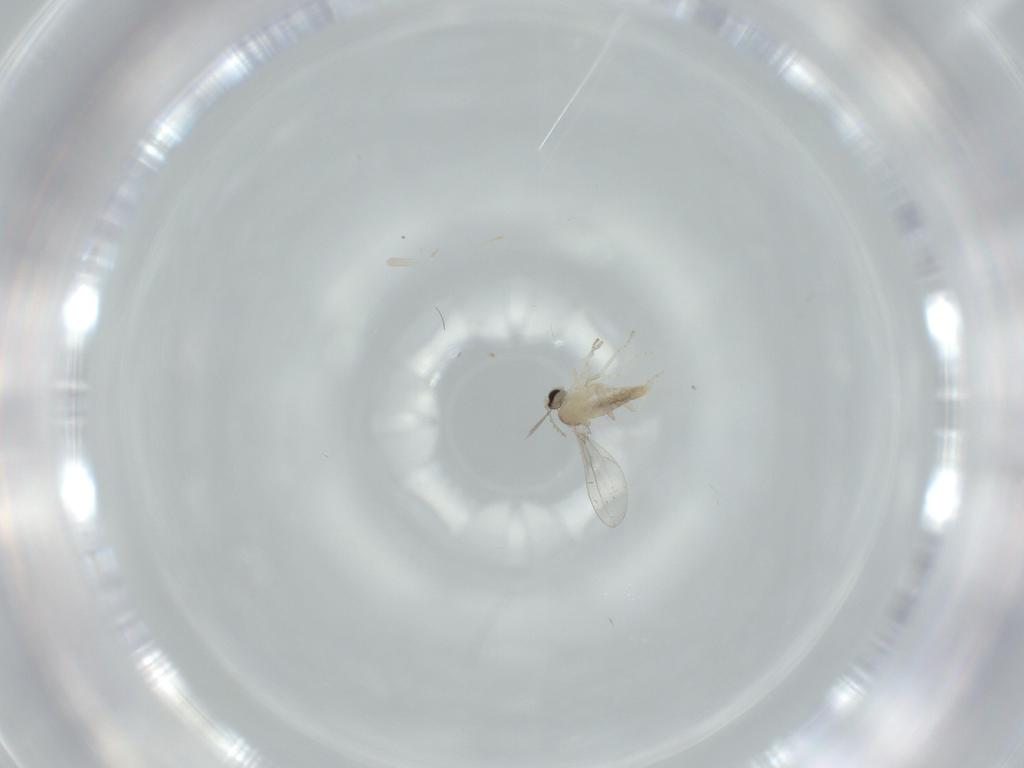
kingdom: Animalia
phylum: Arthropoda
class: Insecta
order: Diptera
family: Cecidomyiidae
